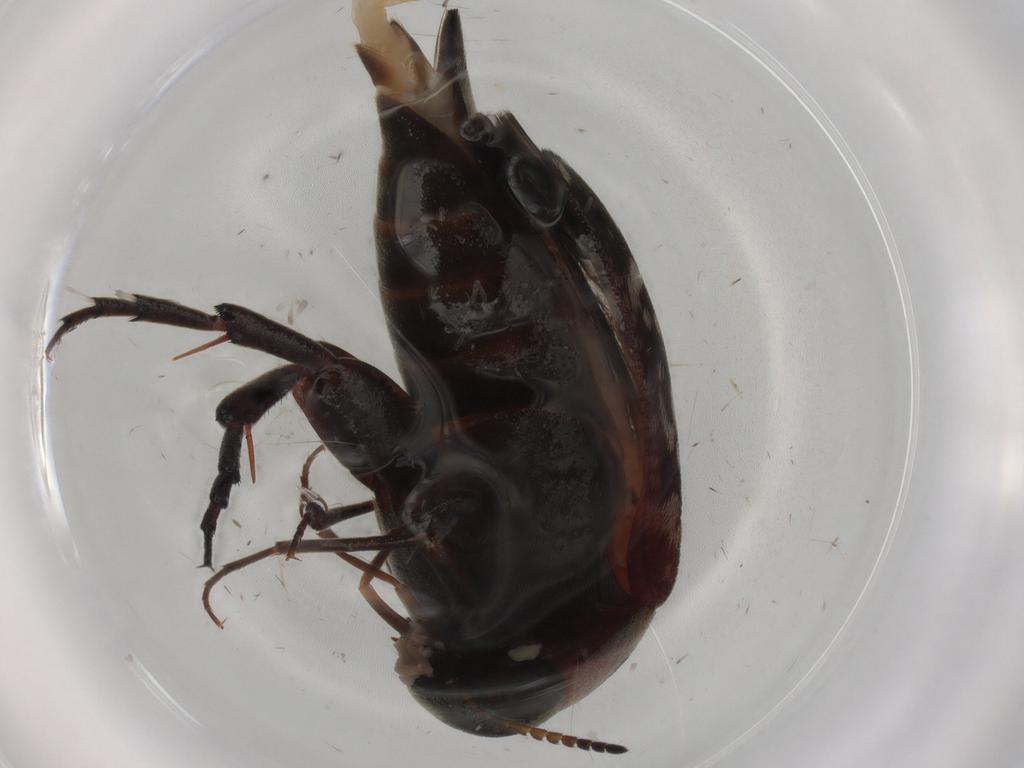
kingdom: Animalia
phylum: Arthropoda
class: Insecta
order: Coleoptera
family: Mordellidae
